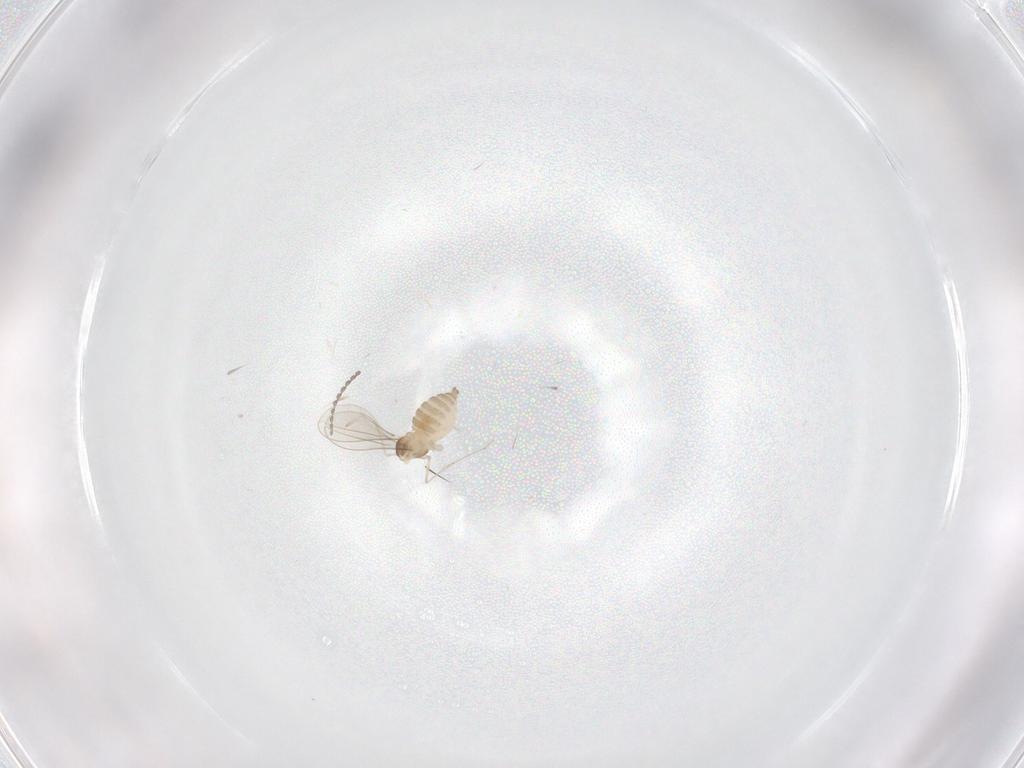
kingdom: Animalia
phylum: Arthropoda
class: Insecta
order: Diptera
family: Cecidomyiidae
